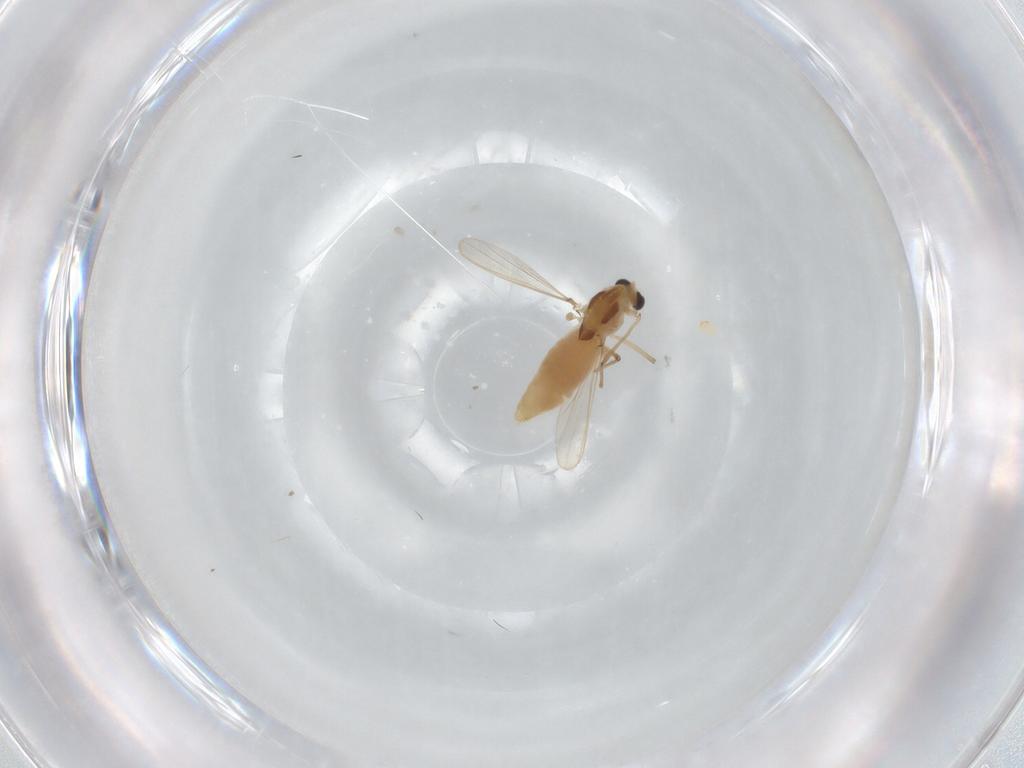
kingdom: Animalia
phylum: Arthropoda
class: Insecta
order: Diptera
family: Chironomidae
